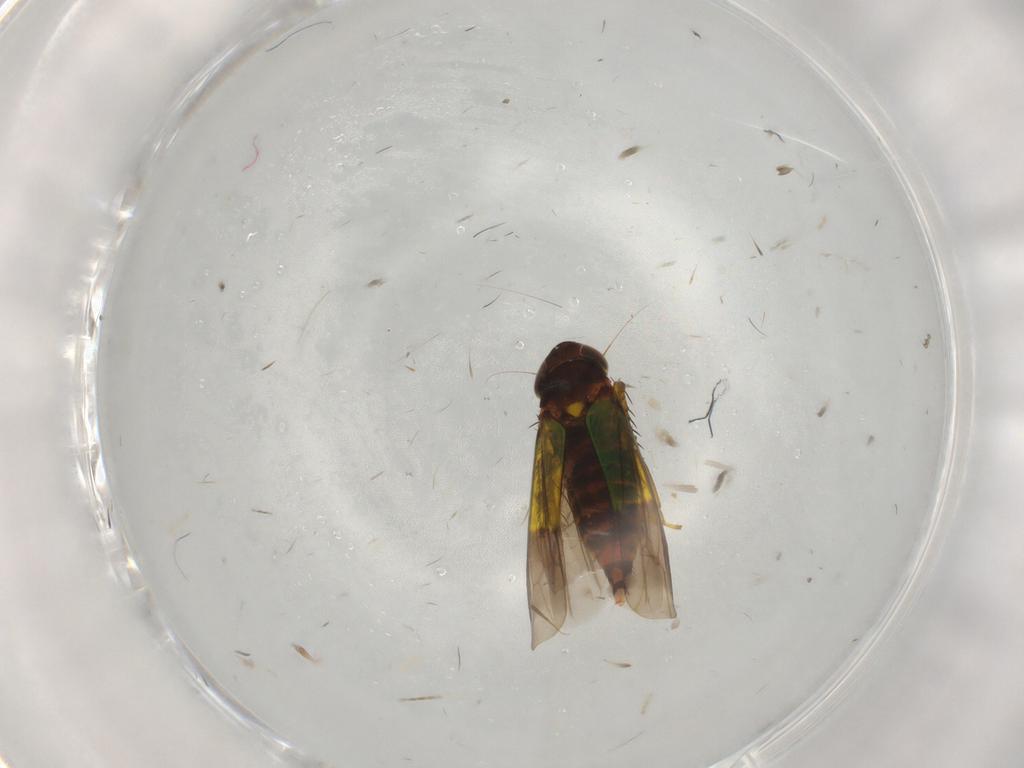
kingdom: Animalia
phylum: Arthropoda
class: Insecta
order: Hemiptera
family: Cicadellidae
